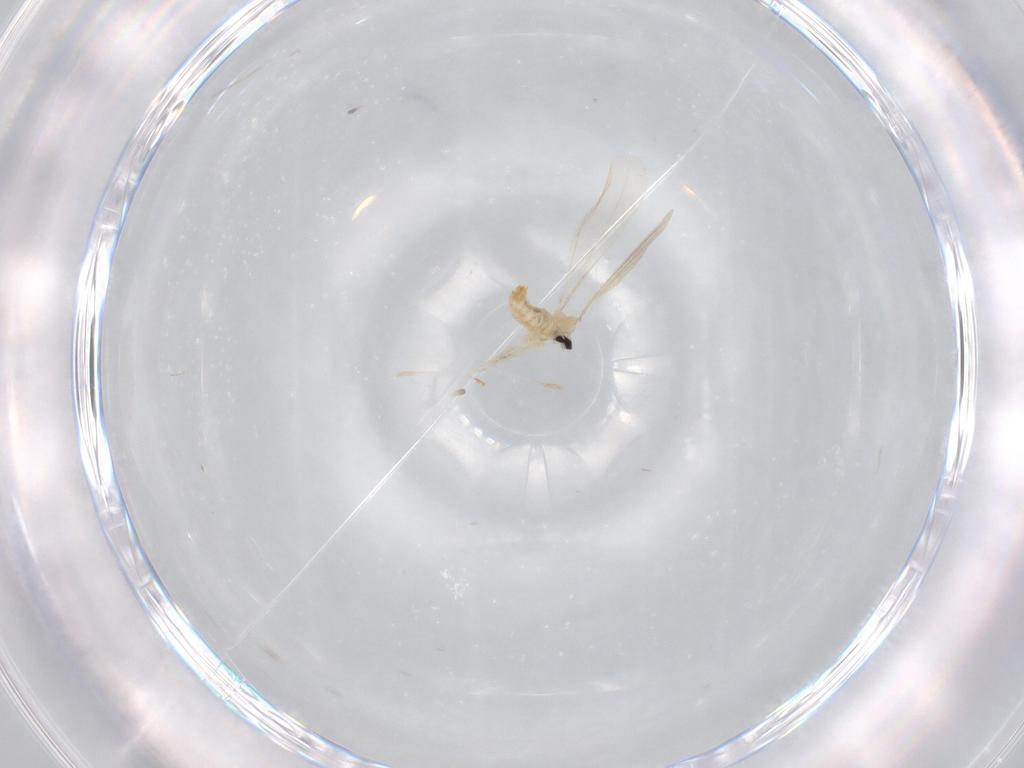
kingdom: Animalia
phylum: Arthropoda
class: Insecta
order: Diptera
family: Cecidomyiidae
